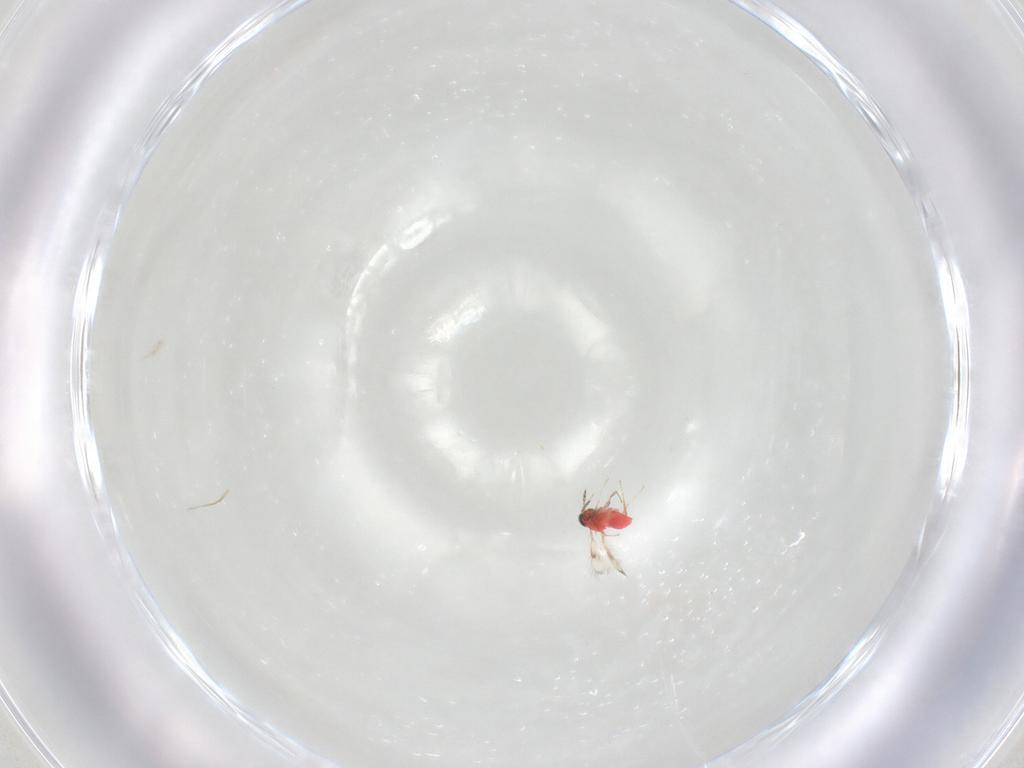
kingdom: Animalia
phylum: Arthropoda
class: Insecta
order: Hymenoptera
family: Trichogrammatidae
